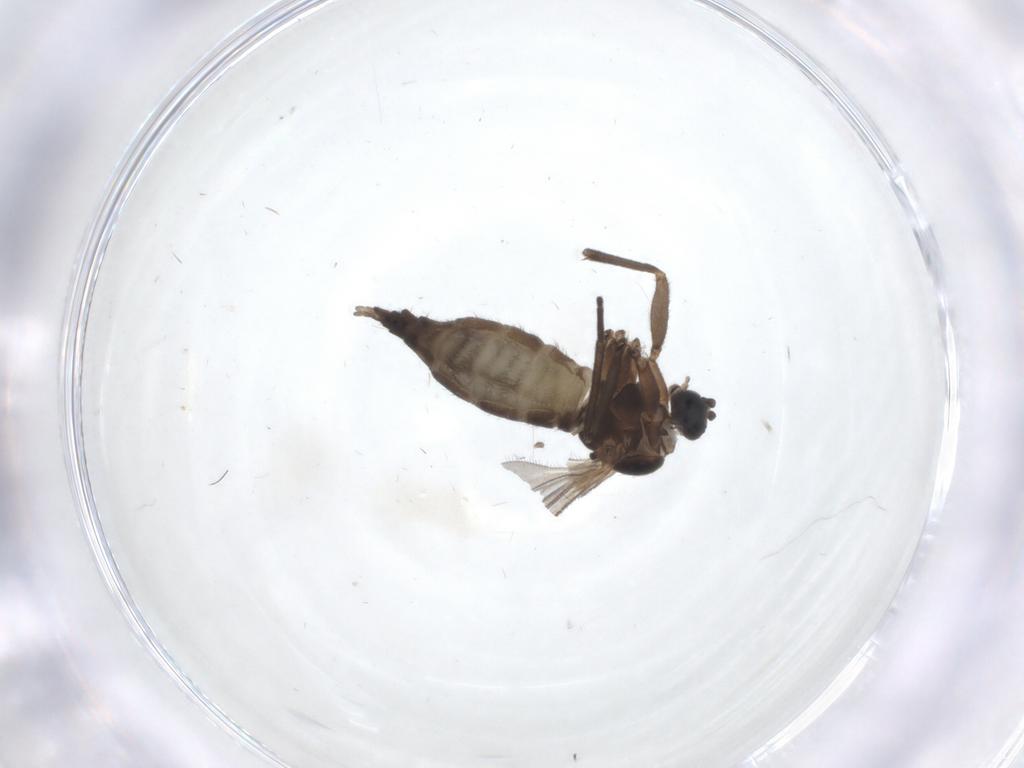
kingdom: Animalia
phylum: Arthropoda
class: Insecta
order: Diptera
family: Sciaridae
